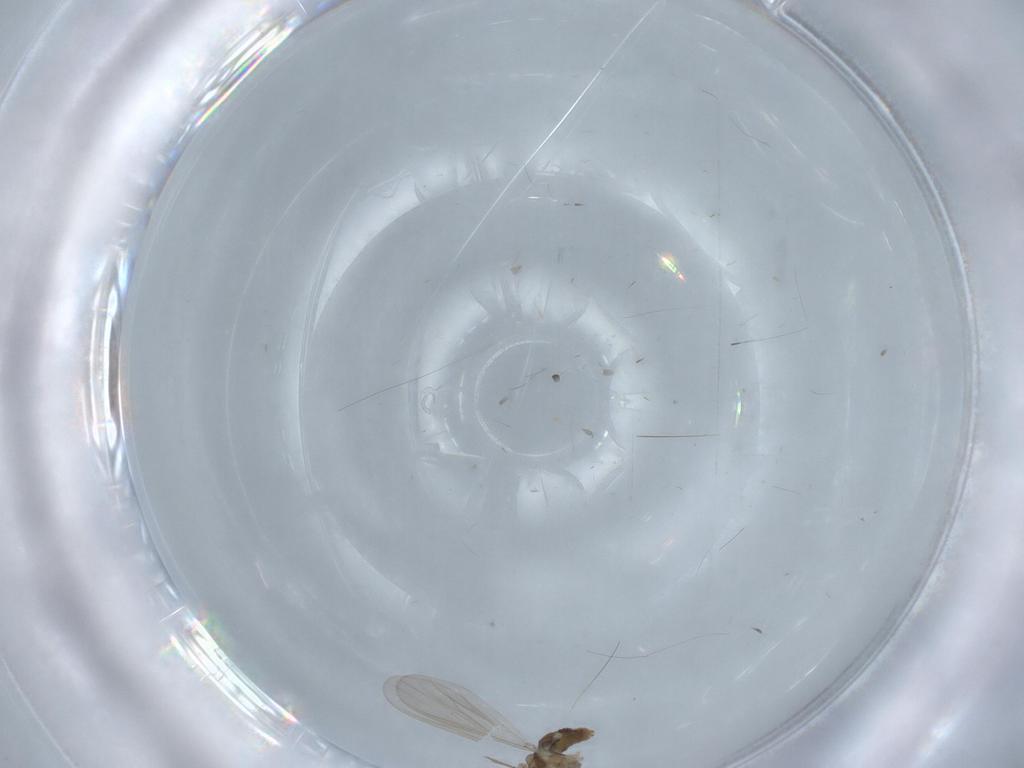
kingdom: Animalia
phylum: Arthropoda
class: Insecta
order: Diptera
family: Chironomidae
